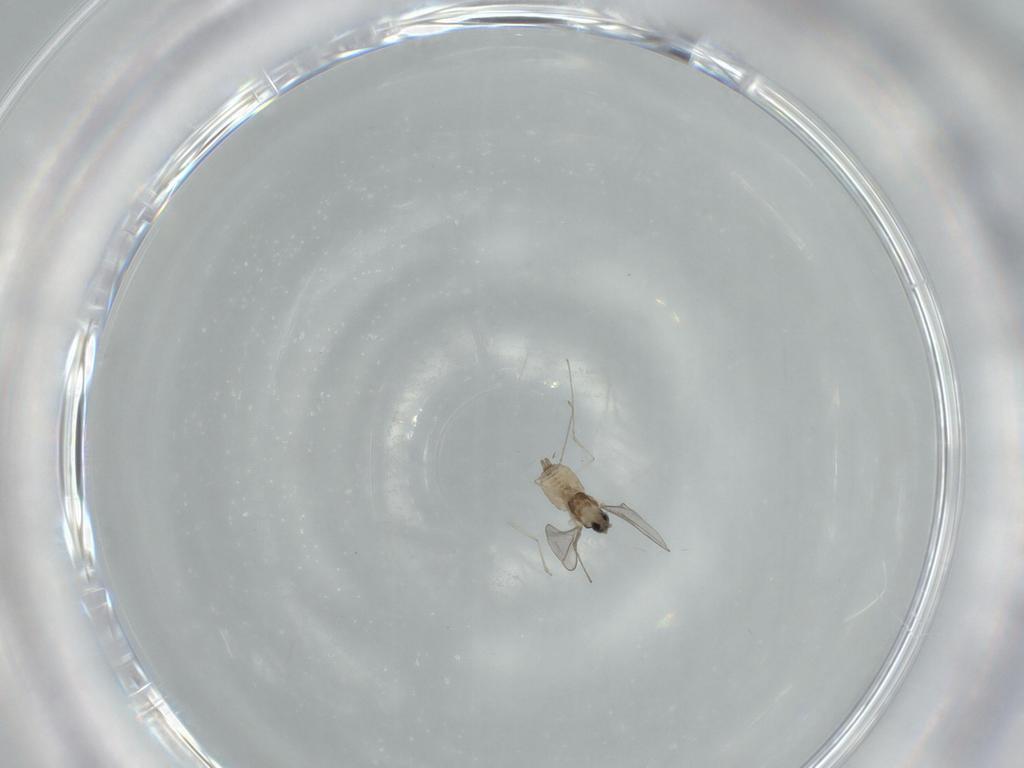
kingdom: Animalia
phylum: Arthropoda
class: Insecta
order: Diptera
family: Cecidomyiidae
